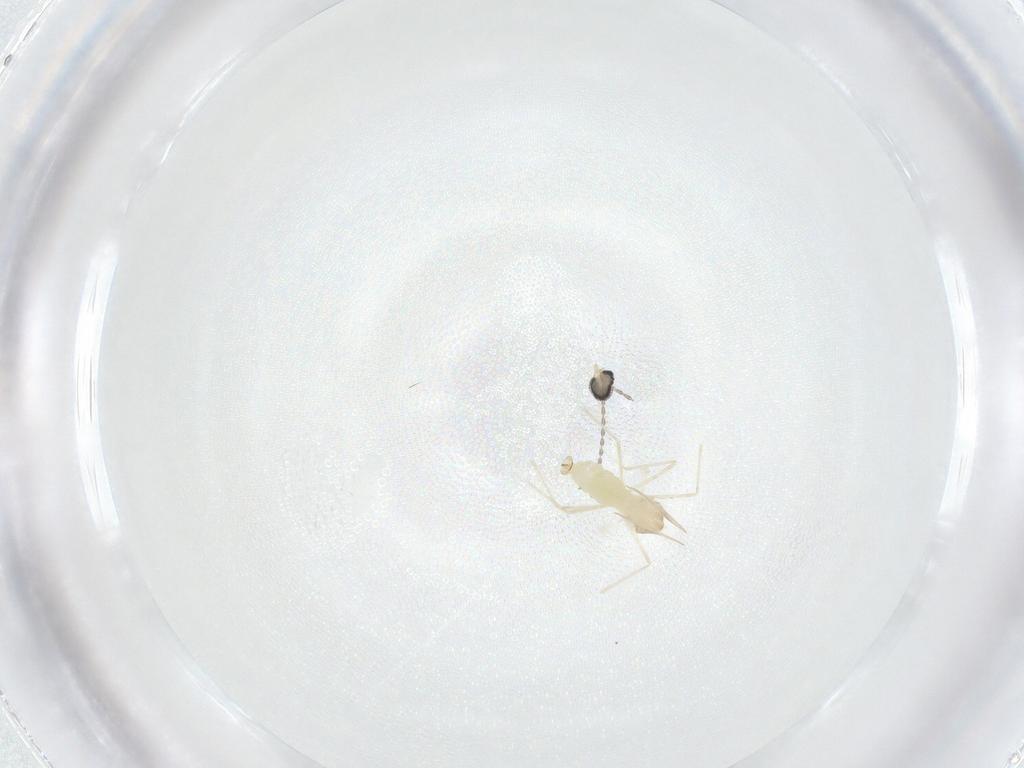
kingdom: Animalia
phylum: Arthropoda
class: Insecta
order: Diptera
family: Cecidomyiidae
